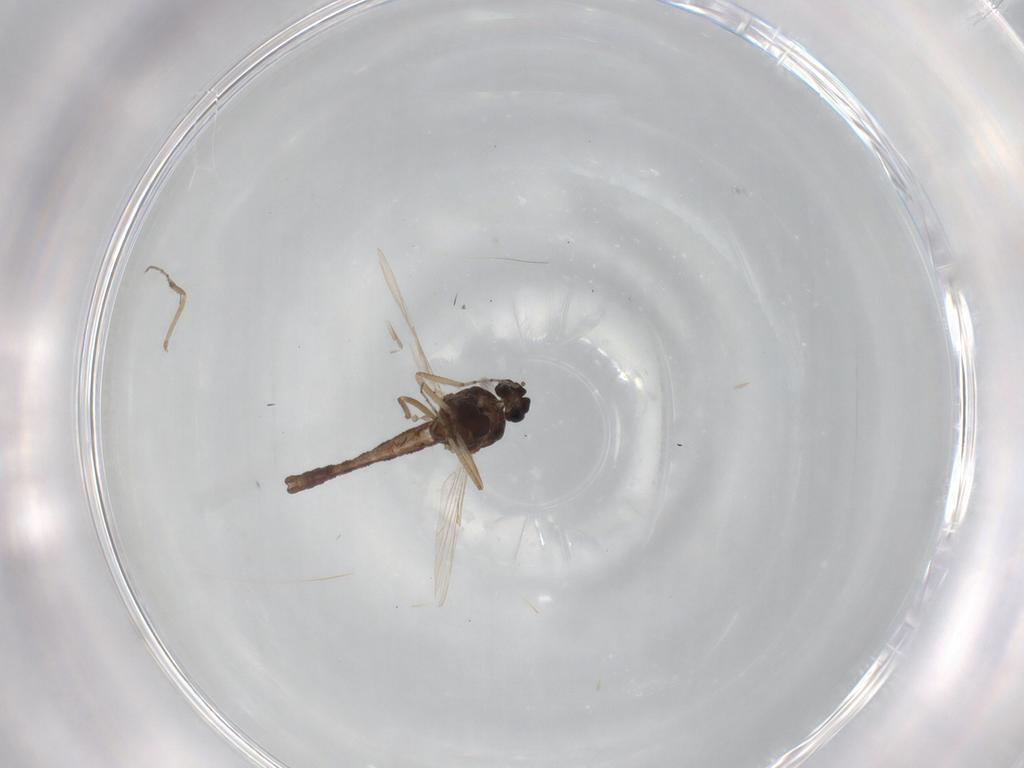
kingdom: Animalia
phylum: Arthropoda
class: Insecta
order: Diptera
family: Ceratopogonidae
